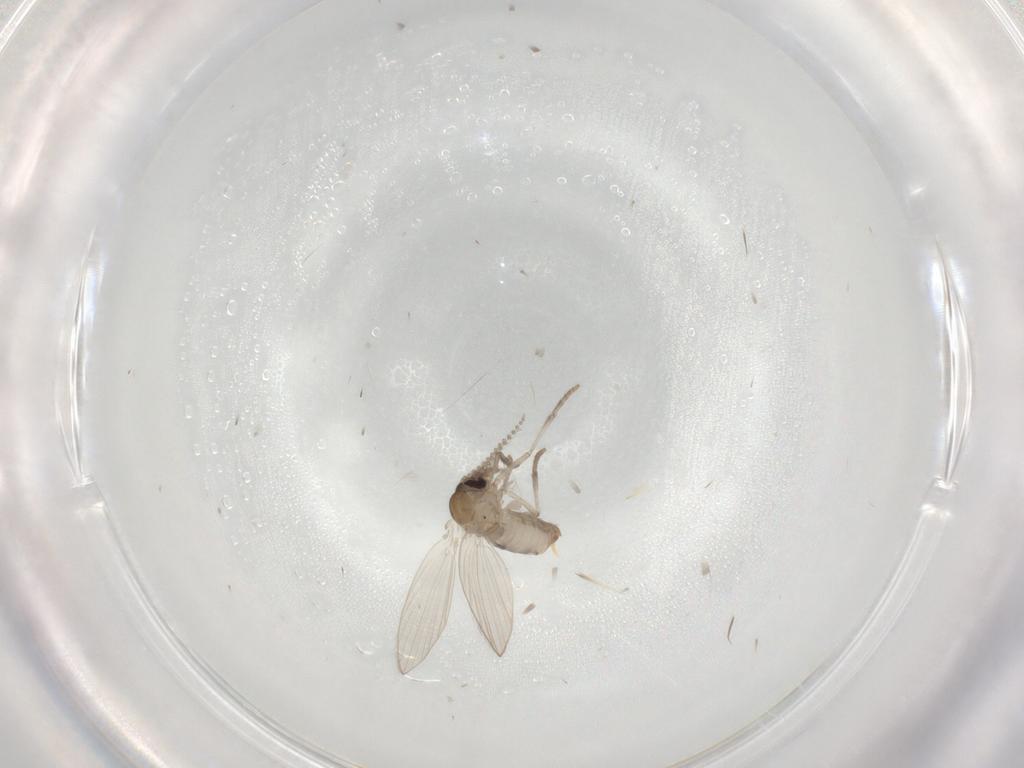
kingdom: Animalia
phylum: Arthropoda
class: Insecta
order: Diptera
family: Psychodidae
